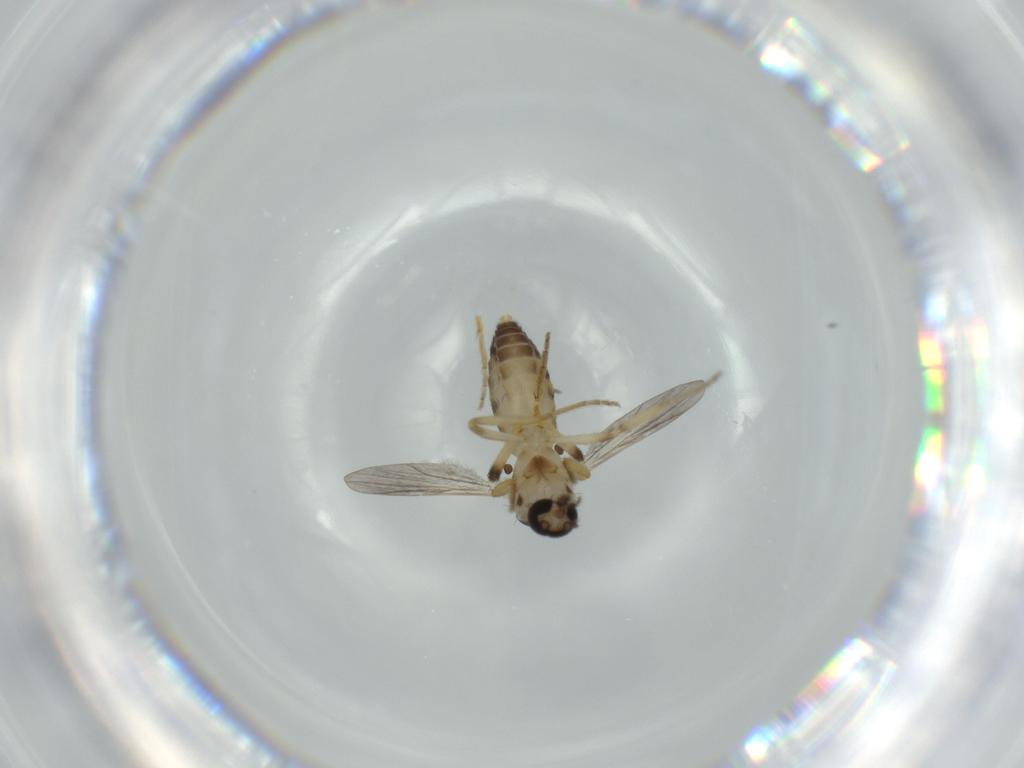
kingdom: Animalia
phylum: Arthropoda
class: Insecta
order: Diptera
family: Ceratopogonidae
